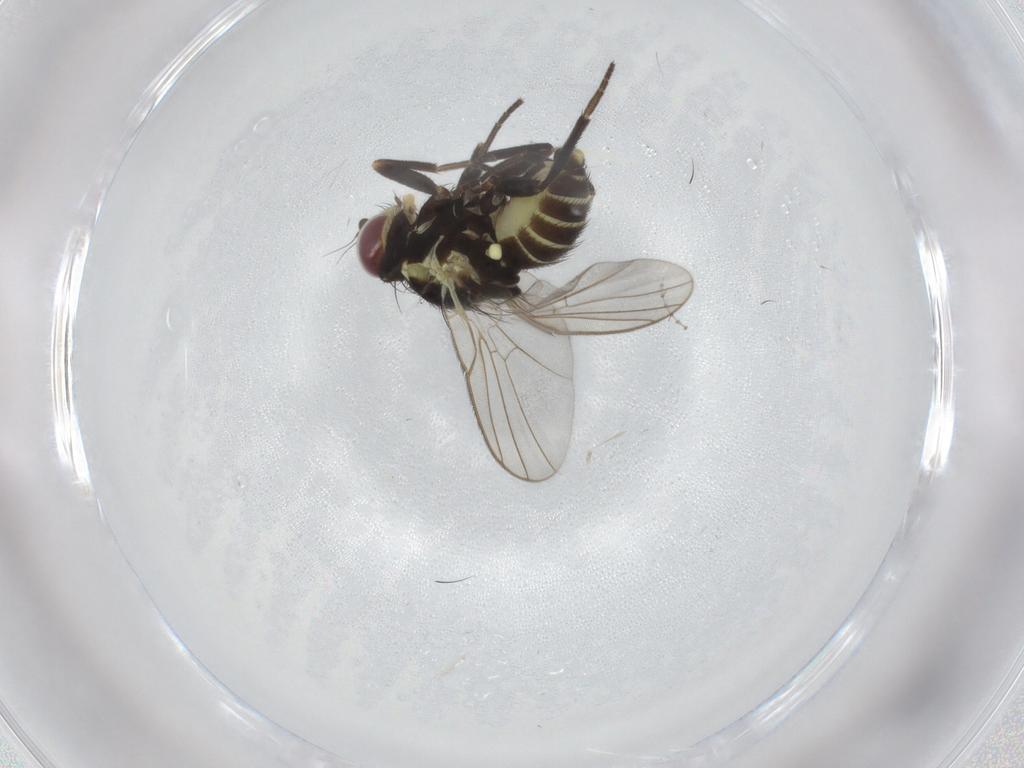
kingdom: Animalia
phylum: Arthropoda
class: Insecta
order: Diptera
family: Agromyzidae
